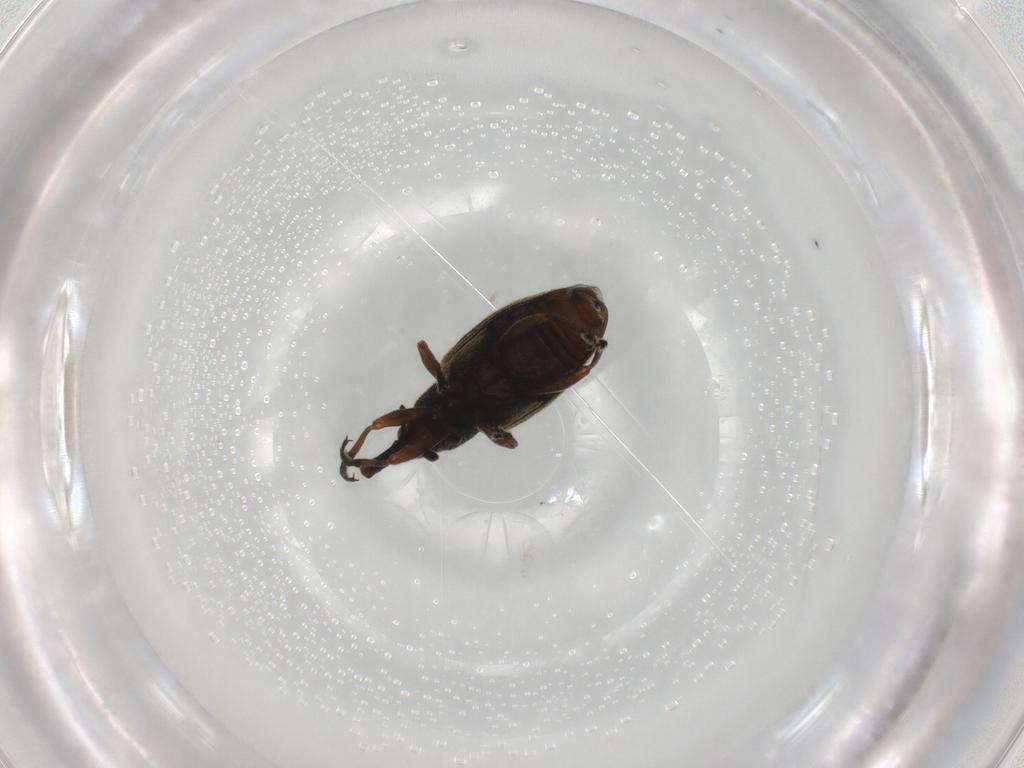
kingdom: Animalia
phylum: Arthropoda
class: Insecta
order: Coleoptera
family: Curculionidae
